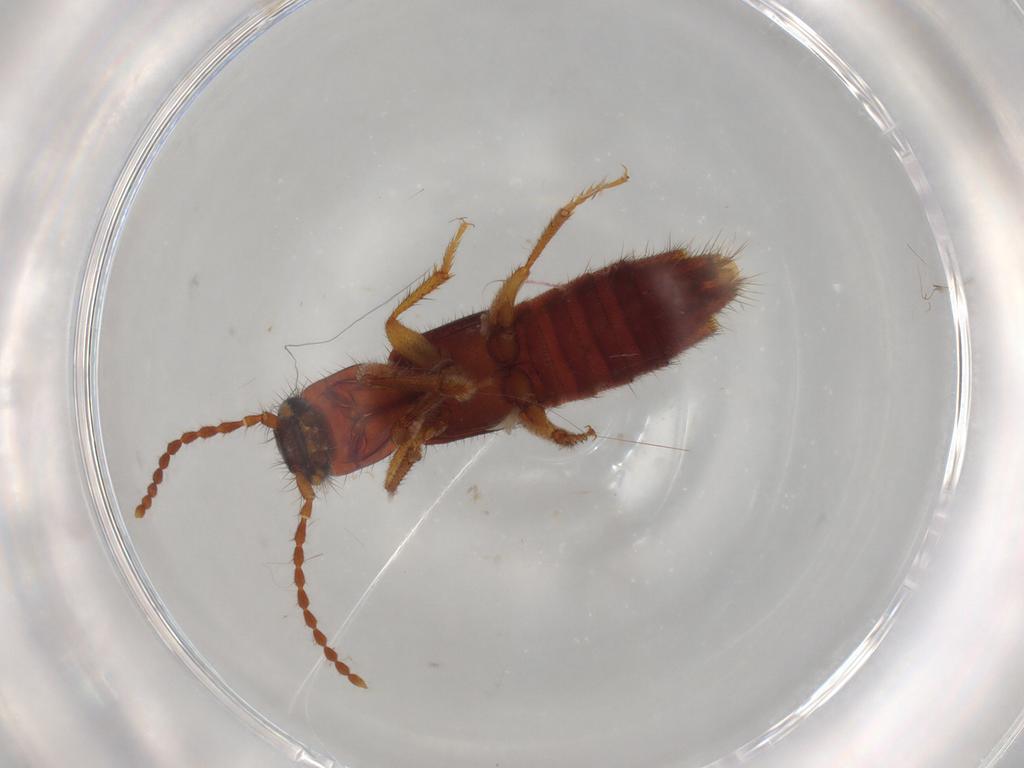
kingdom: Animalia
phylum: Arthropoda
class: Insecta
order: Coleoptera
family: Staphylinidae
